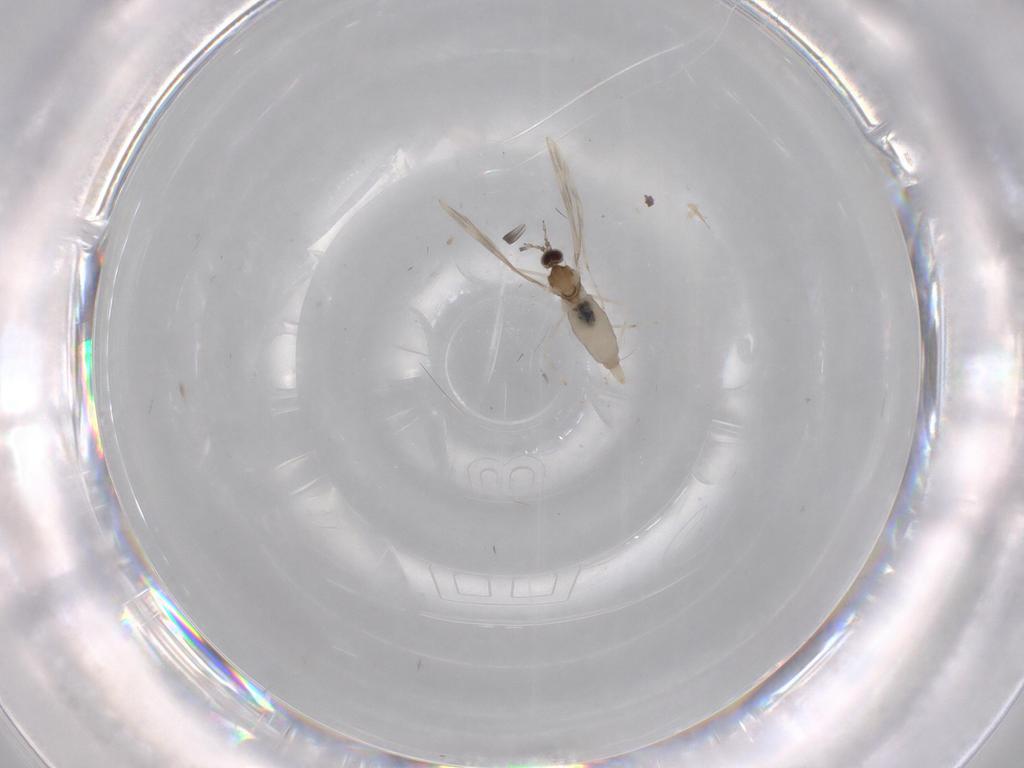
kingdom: Animalia
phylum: Arthropoda
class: Insecta
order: Diptera
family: Cecidomyiidae
